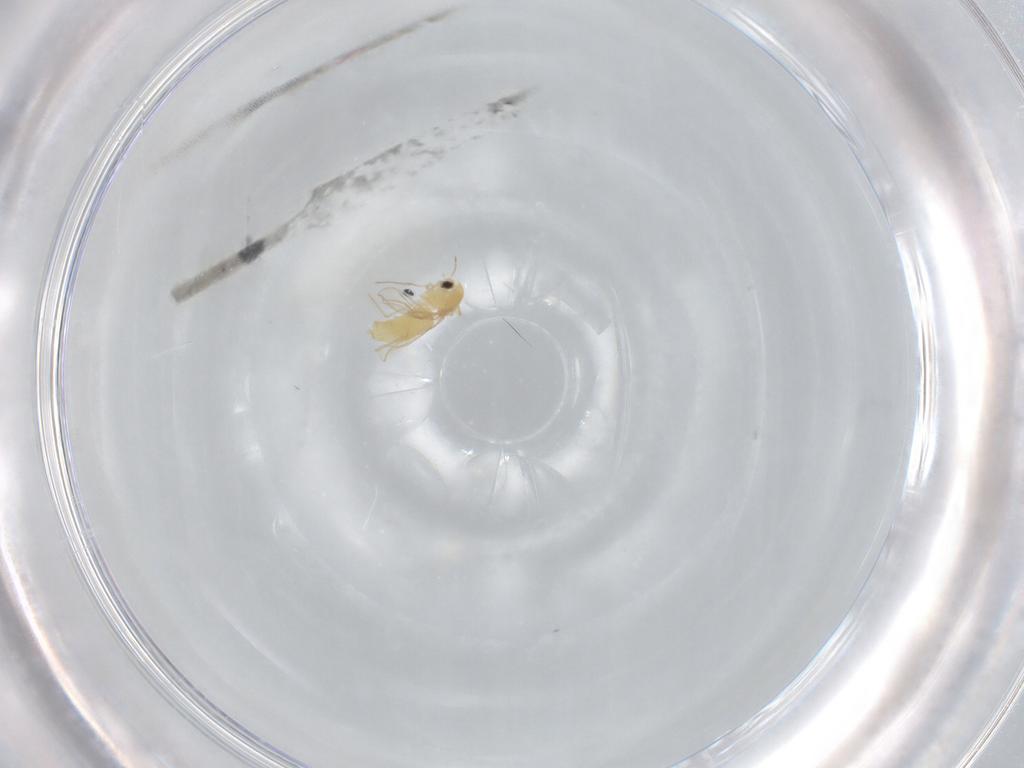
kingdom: Animalia
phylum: Arthropoda
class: Insecta
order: Diptera
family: Chironomidae
